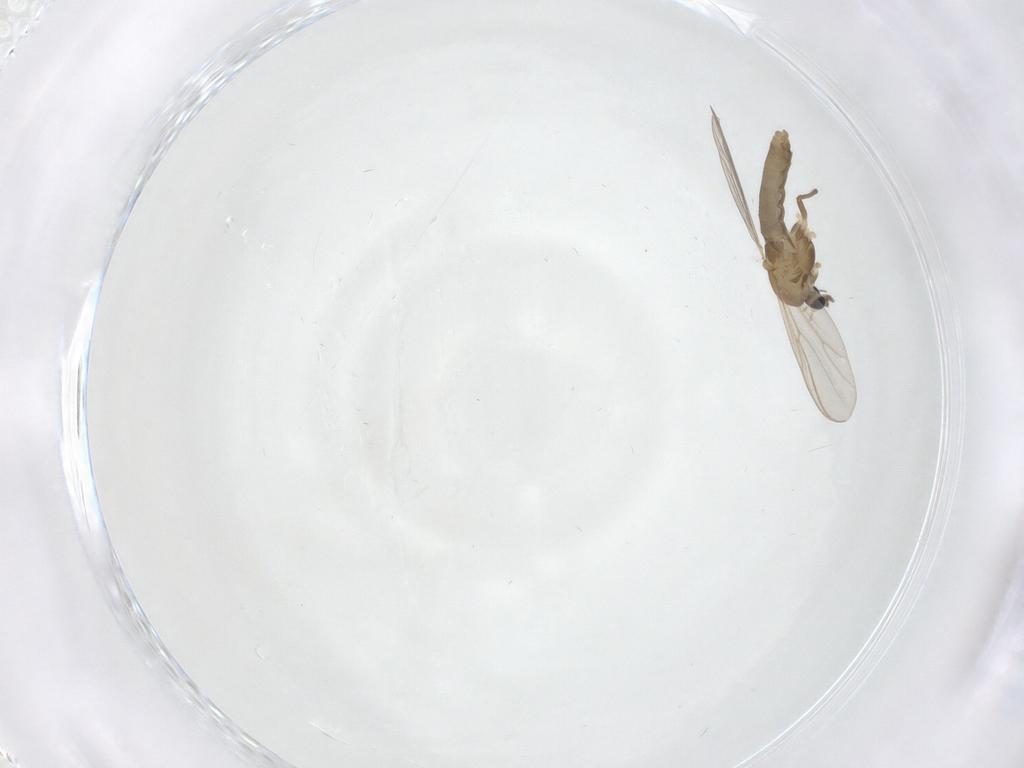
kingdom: Animalia
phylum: Arthropoda
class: Insecta
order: Diptera
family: Chironomidae
